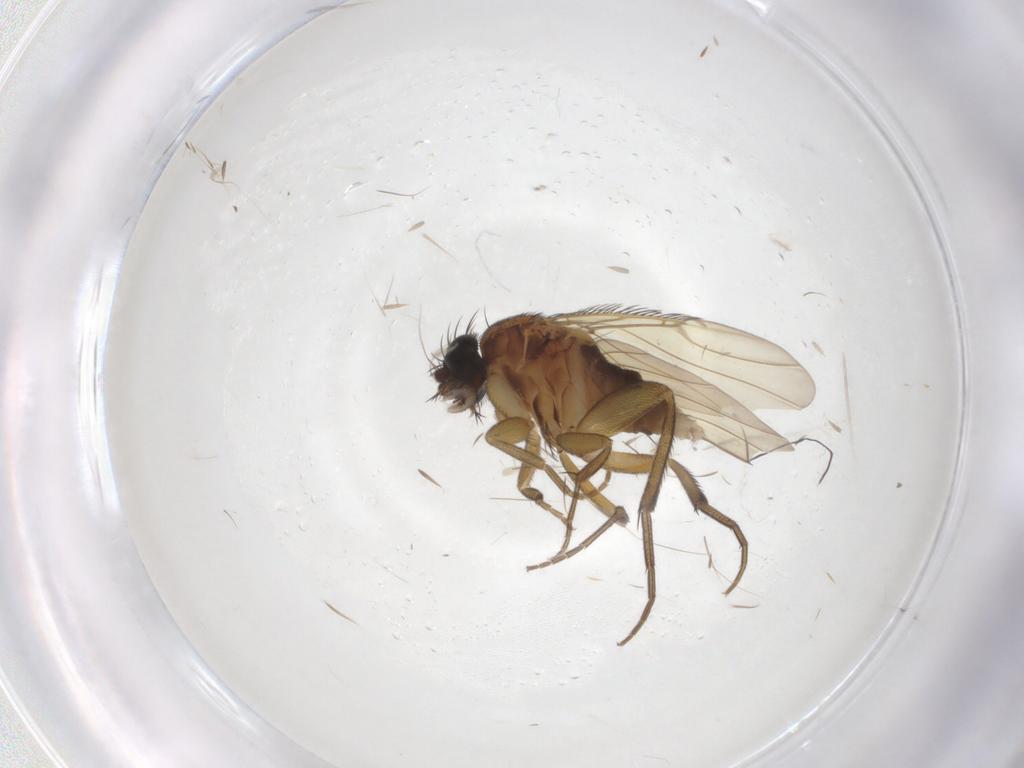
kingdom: Animalia
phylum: Arthropoda
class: Insecta
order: Diptera
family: Phoridae
